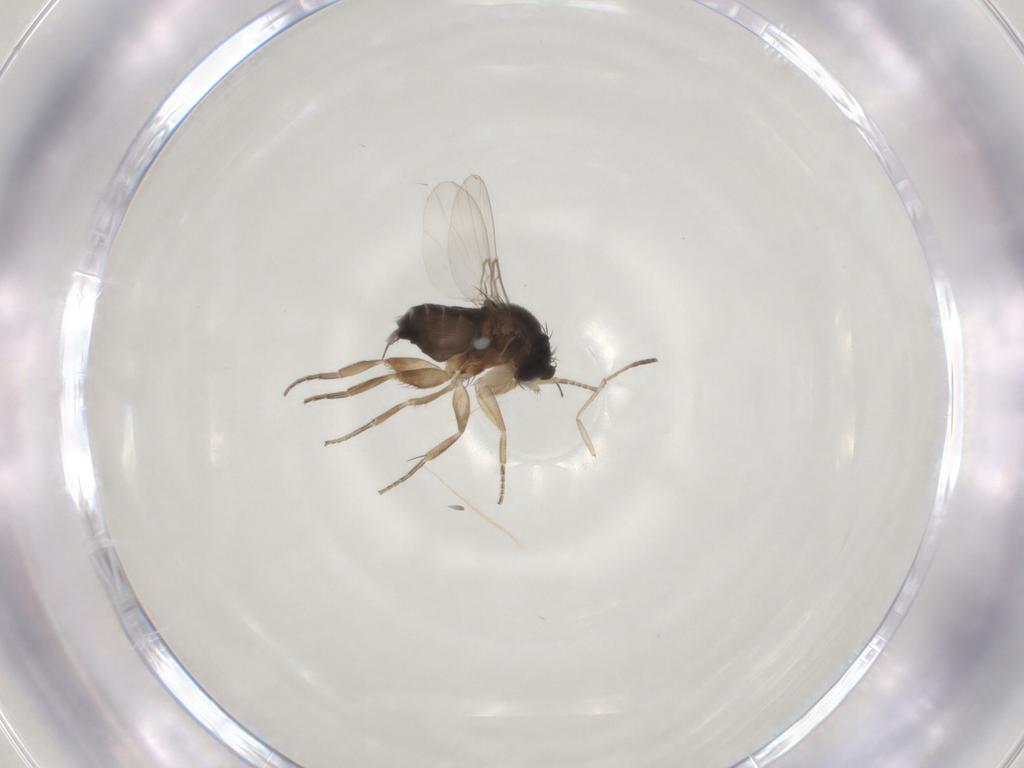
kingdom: Animalia
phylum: Arthropoda
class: Insecta
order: Diptera
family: Psychodidae
